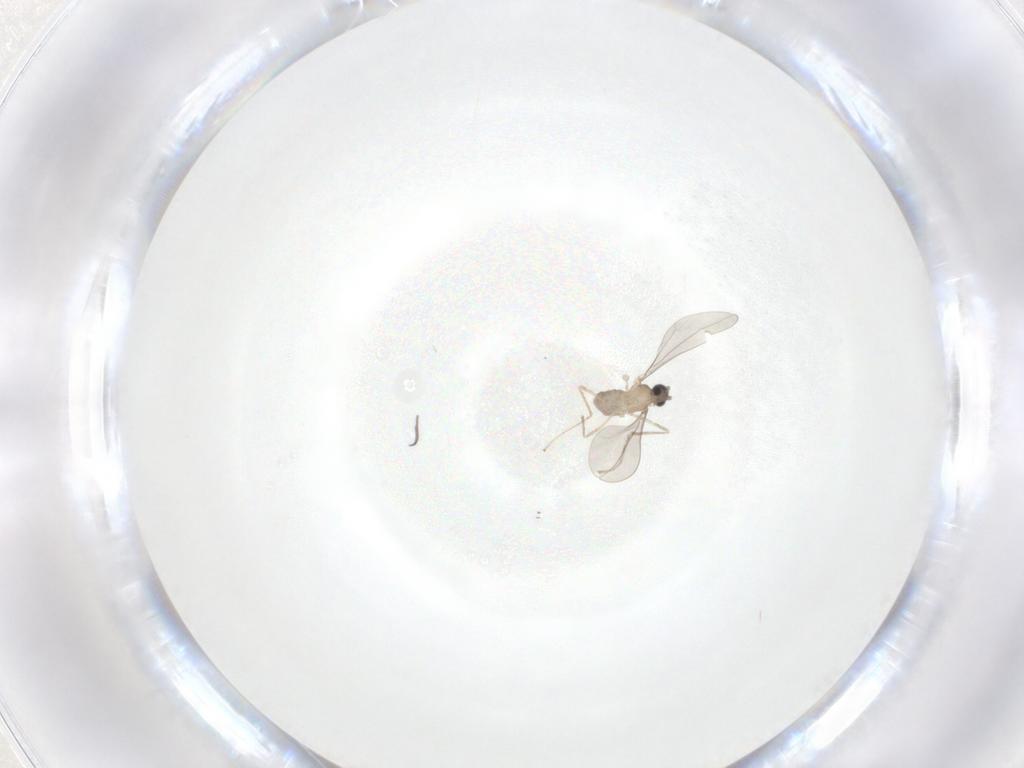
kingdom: Animalia
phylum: Arthropoda
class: Insecta
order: Diptera
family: Cecidomyiidae
